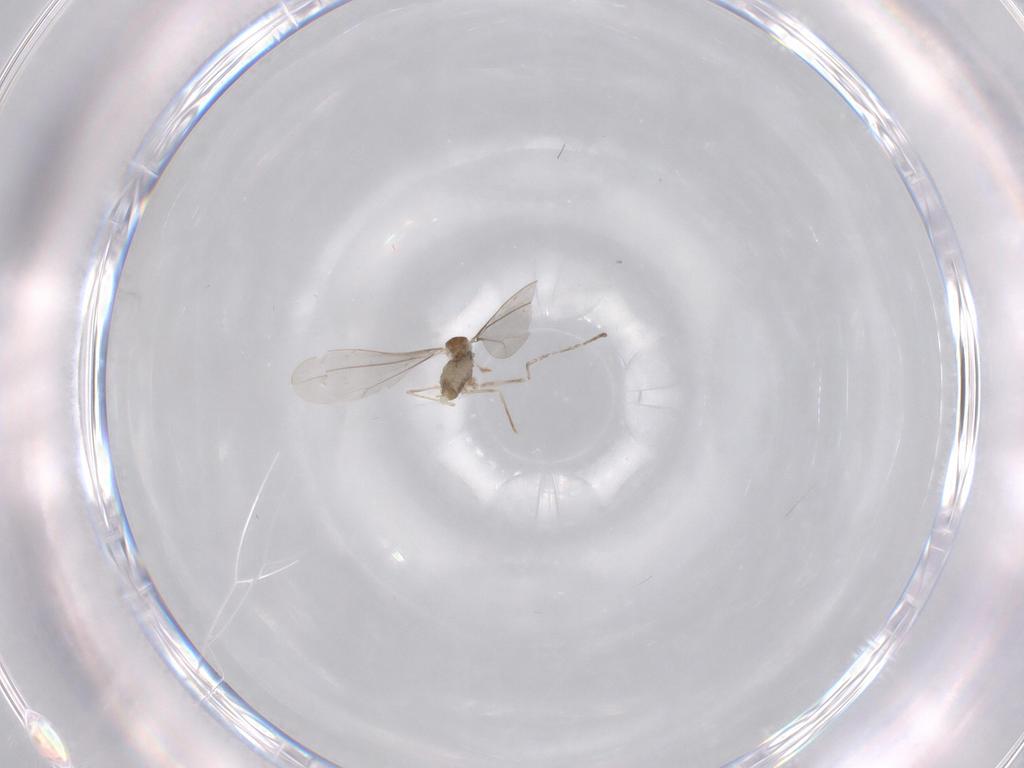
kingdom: Animalia
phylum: Arthropoda
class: Insecta
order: Diptera
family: Cecidomyiidae
